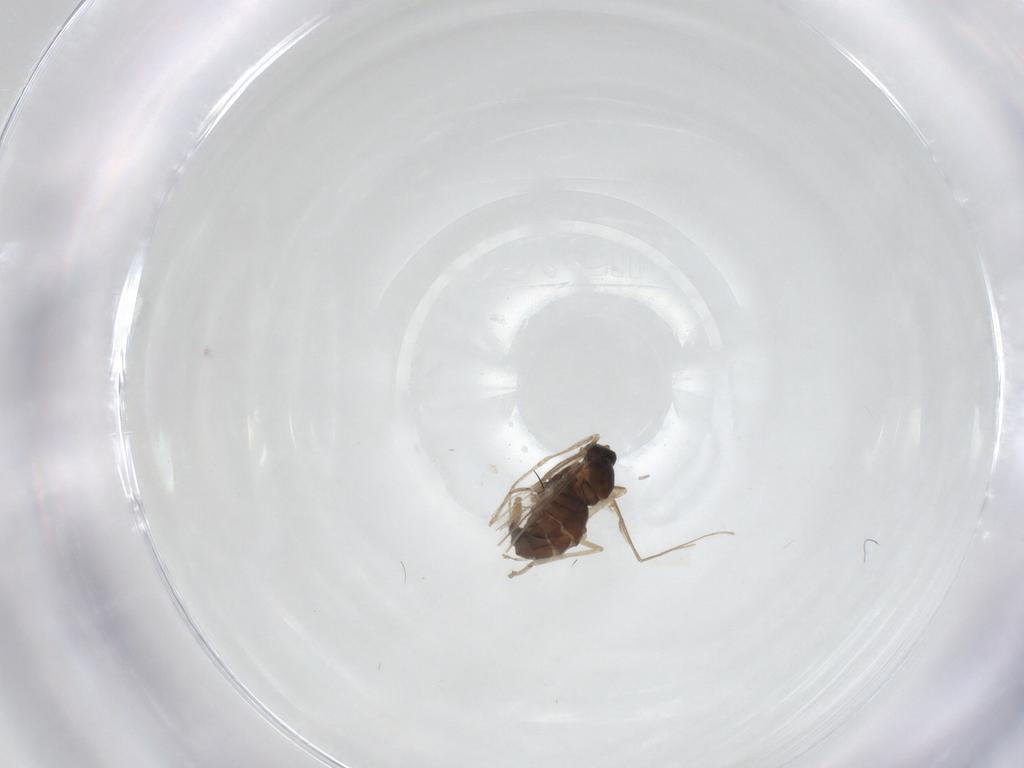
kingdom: Animalia
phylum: Arthropoda
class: Insecta
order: Diptera
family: Cecidomyiidae
